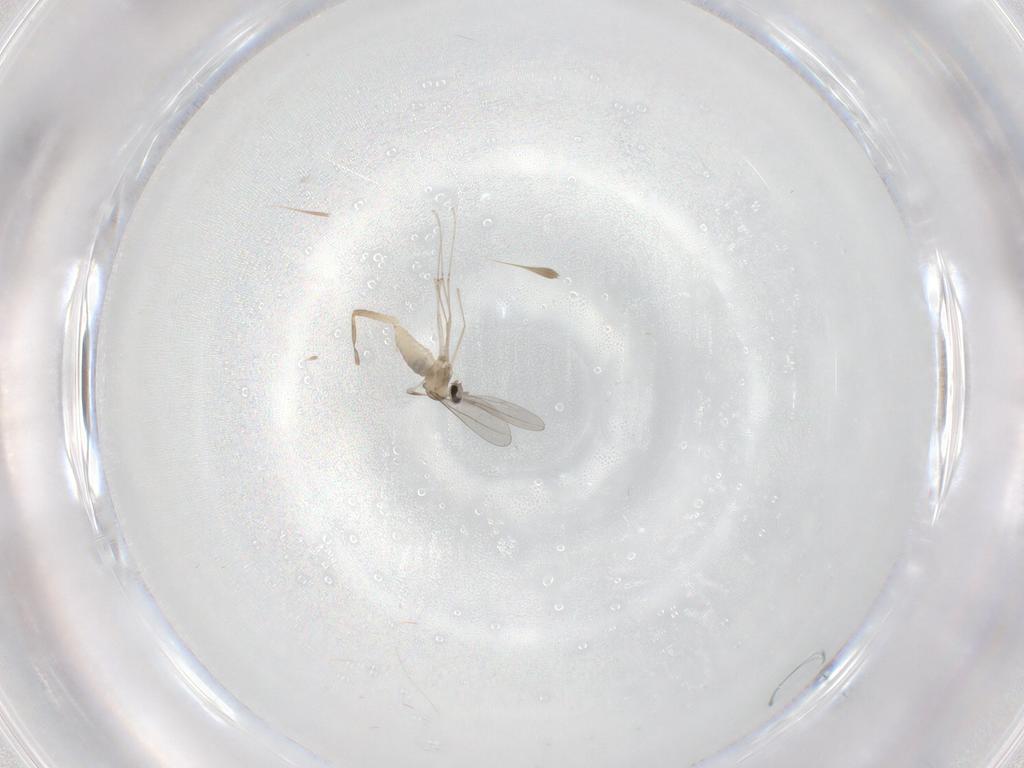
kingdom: Animalia
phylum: Arthropoda
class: Insecta
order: Diptera
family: Chironomidae
